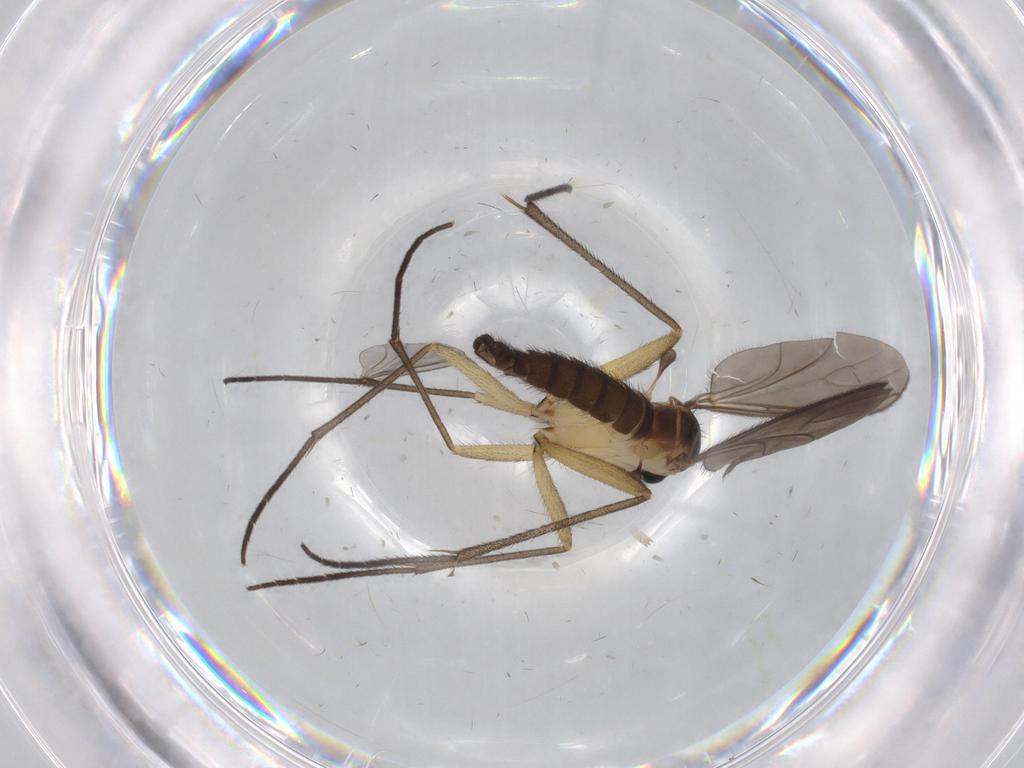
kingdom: Animalia
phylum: Arthropoda
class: Insecta
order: Diptera
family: Sciaridae
